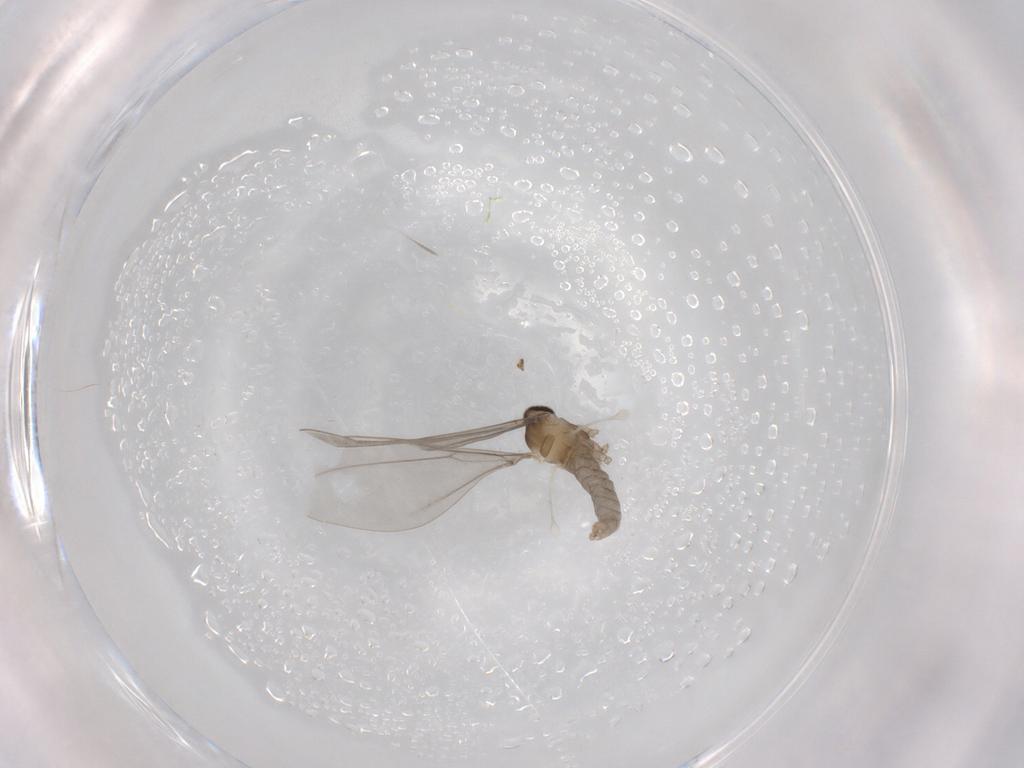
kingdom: Animalia
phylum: Arthropoda
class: Insecta
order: Diptera
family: Cecidomyiidae
